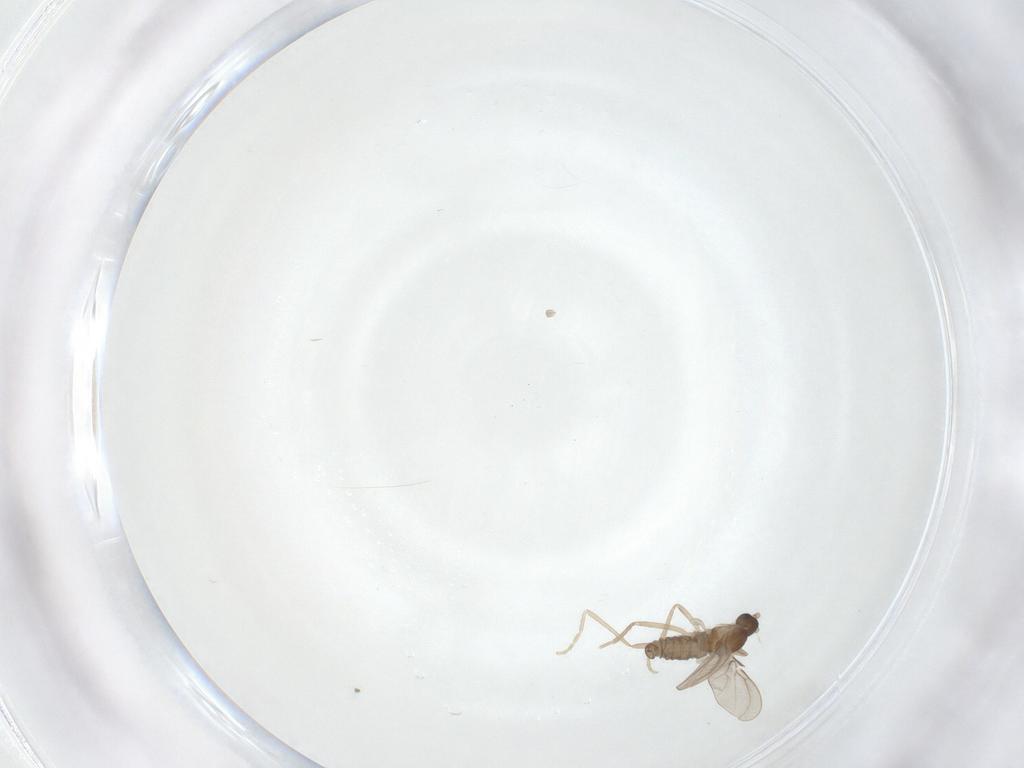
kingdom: Animalia
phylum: Arthropoda
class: Insecta
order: Diptera
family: Cecidomyiidae
